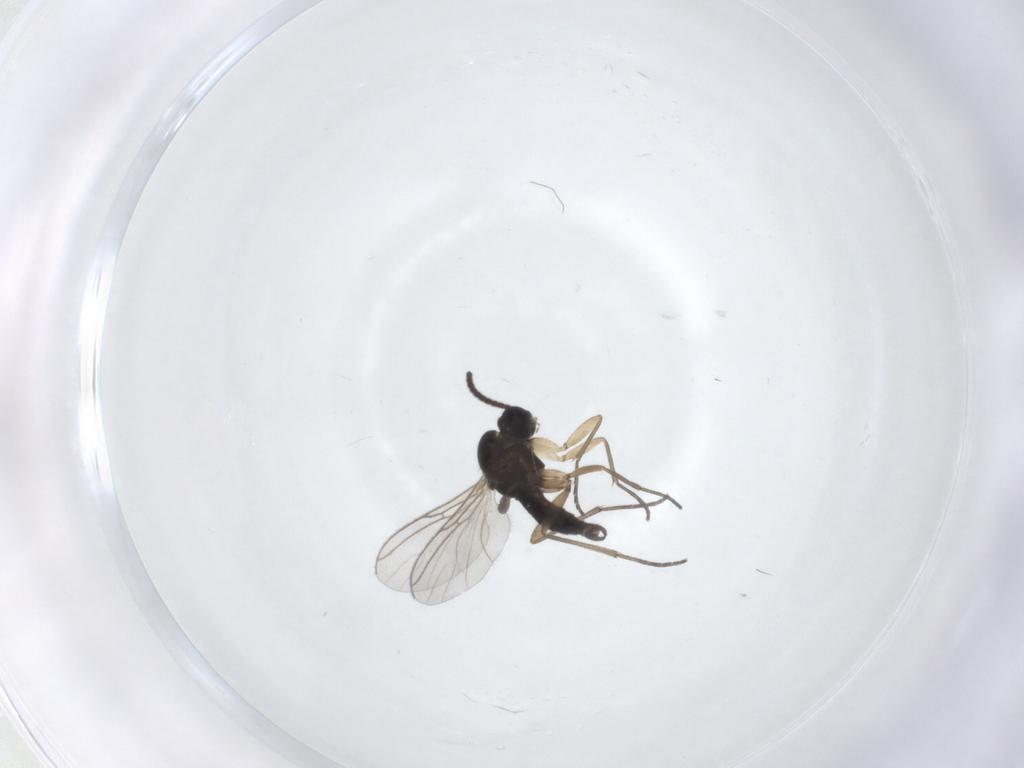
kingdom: Animalia
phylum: Arthropoda
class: Insecta
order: Diptera
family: Sciaridae
